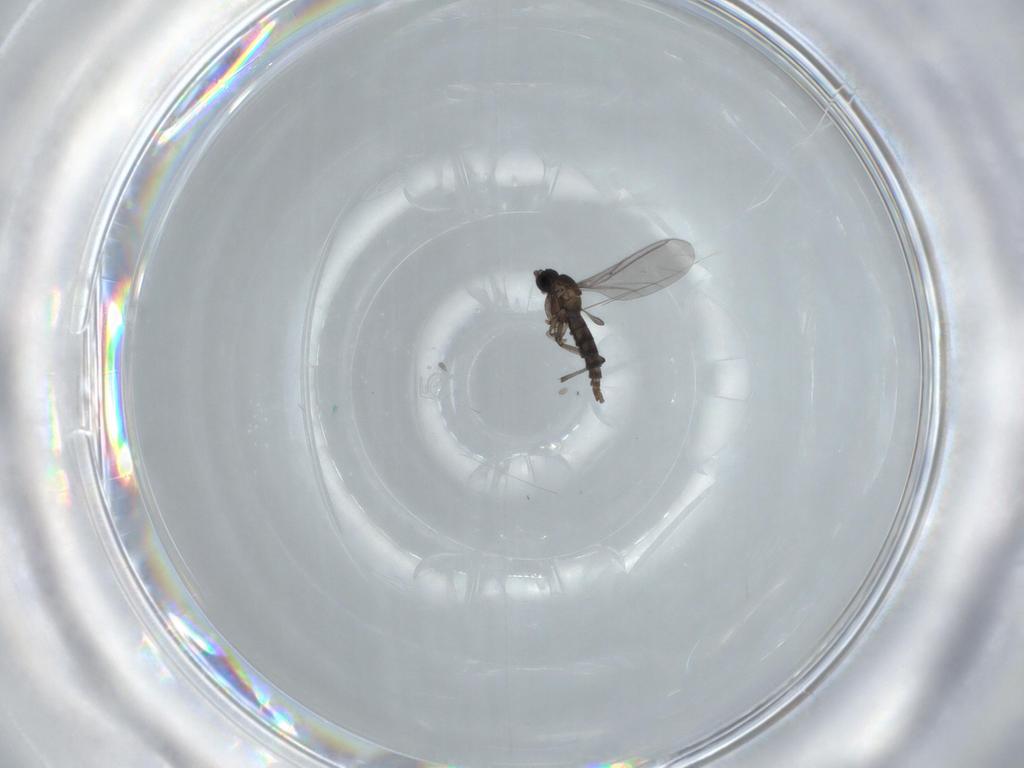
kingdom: Animalia
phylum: Arthropoda
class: Insecta
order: Diptera
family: Sciaridae
